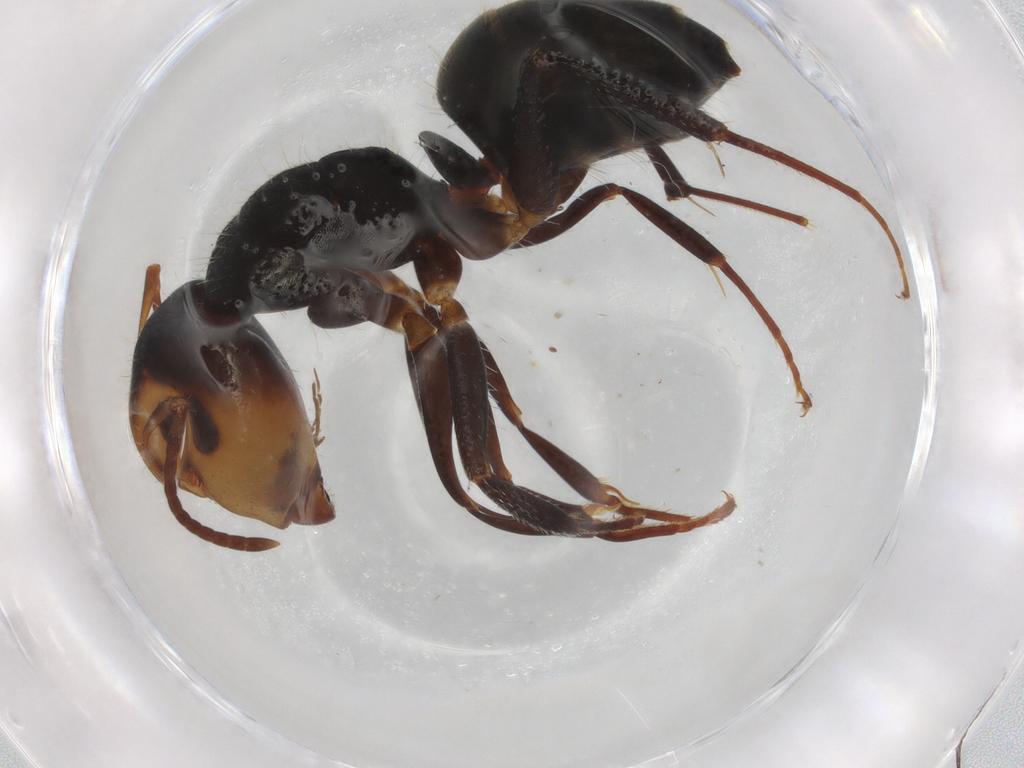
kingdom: Animalia
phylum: Arthropoda
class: Insecta
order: Hymenoptera
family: Formicidae
